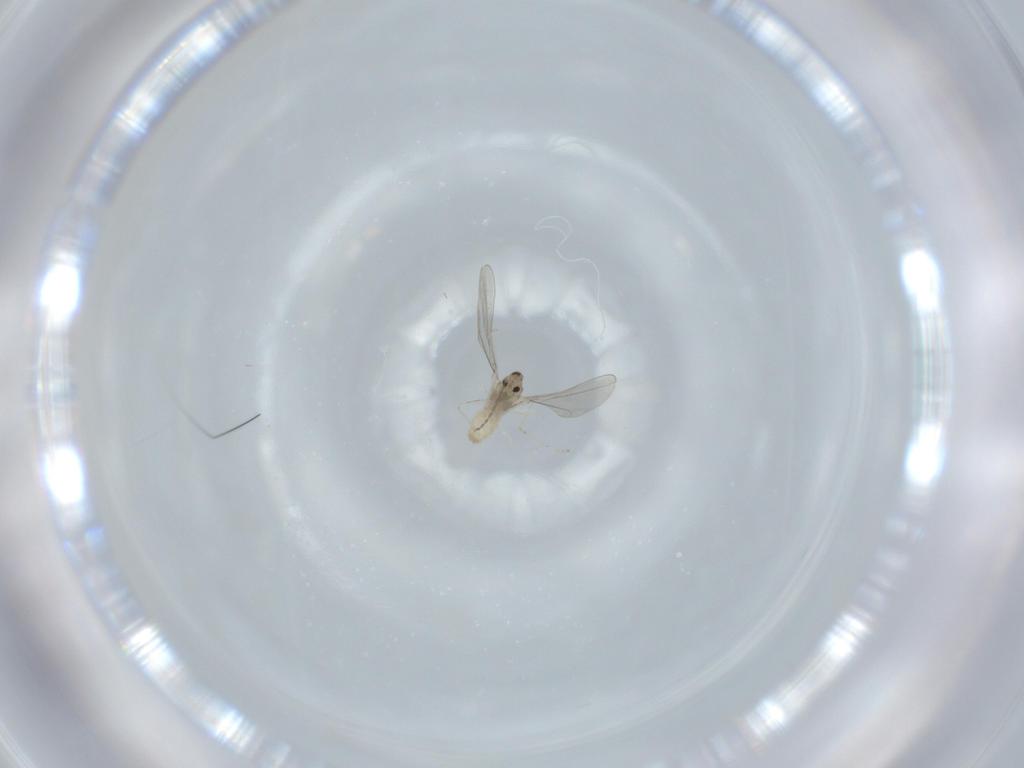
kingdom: Animalia
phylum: Arthropoda
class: Insecta
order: Diptera
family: Cecidomyiidae
